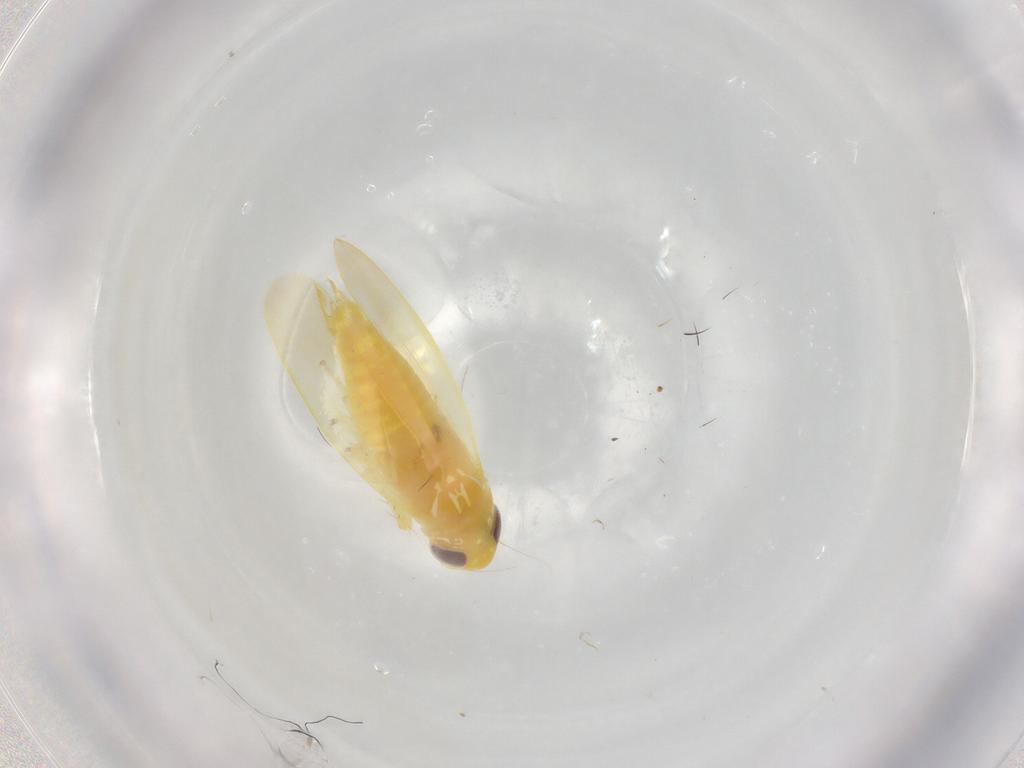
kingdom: Animalia
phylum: Arthropoda
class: Insecta
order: Hemiptera
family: Cicadellidae
